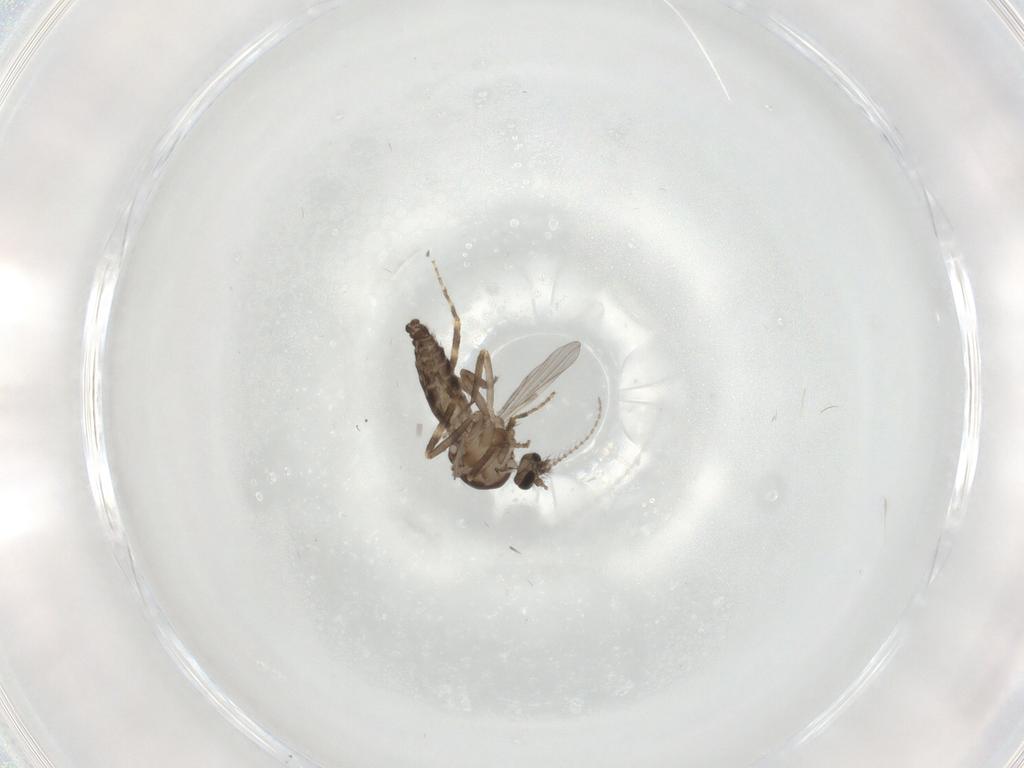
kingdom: Animalia
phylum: Arthropoda
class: Insecta
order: Diptera
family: Ceratopogonidae
